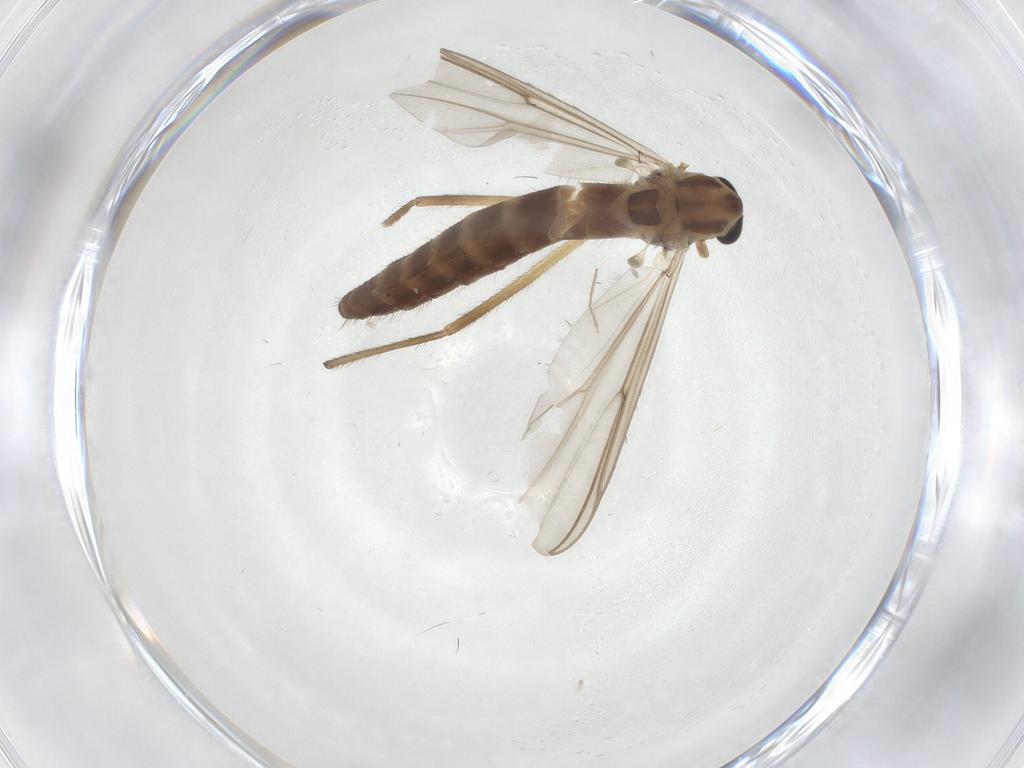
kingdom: Animalia
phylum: Arthropoda
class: Insecta
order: Diptera
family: Chironomidae
